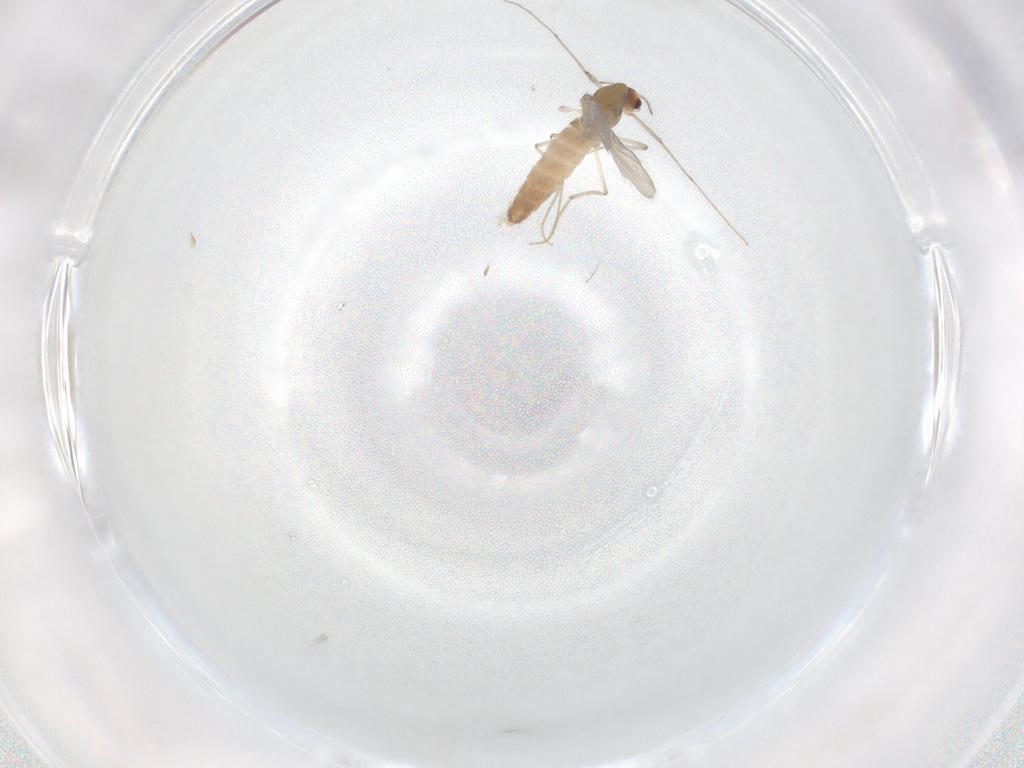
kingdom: Animalia
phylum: Arthropoda
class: Insecta
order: Diptera
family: Chironomidae
